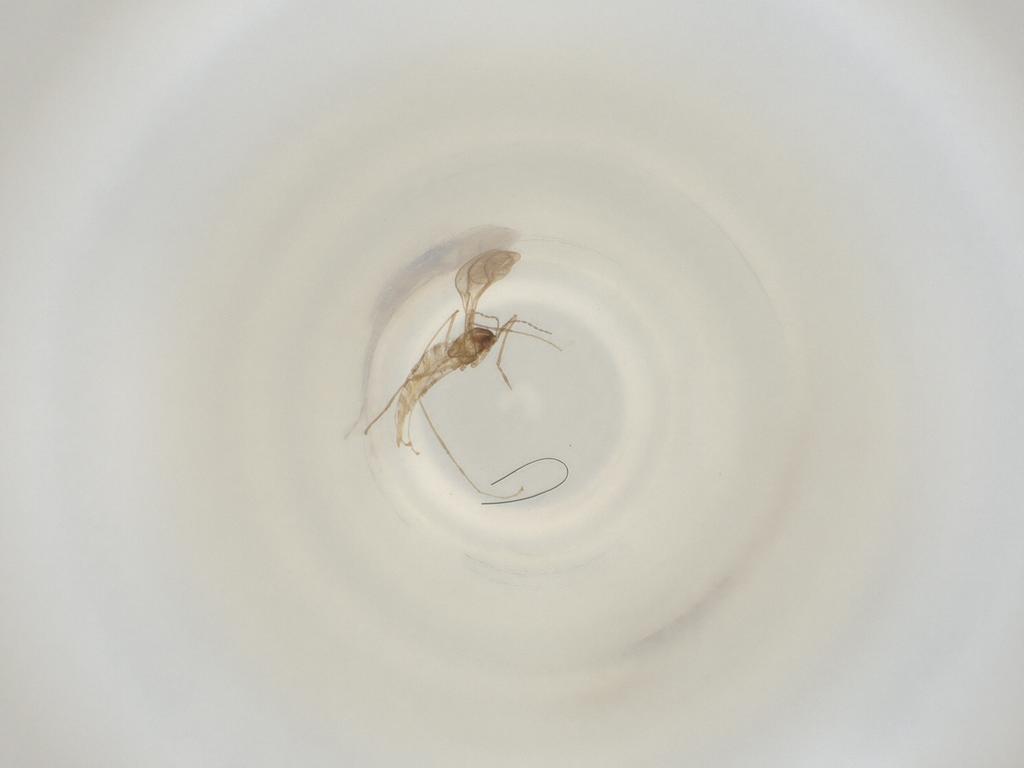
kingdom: Animalia
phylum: Arthropoda
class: Insecta
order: Diptera
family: Cecidomyiidae
